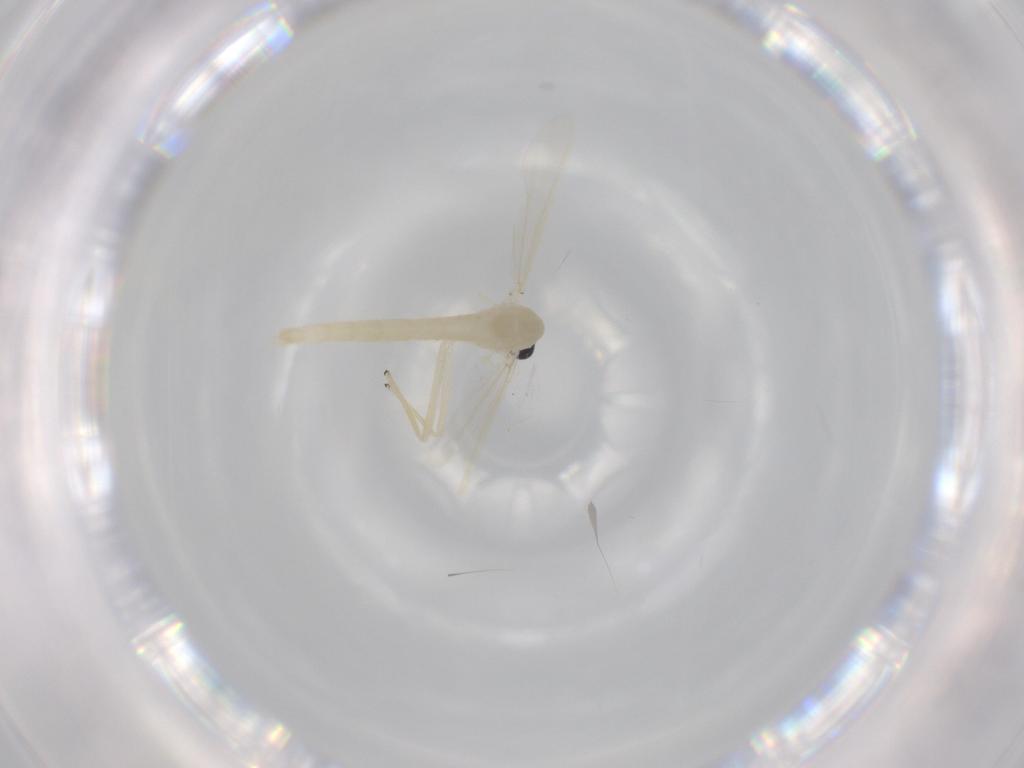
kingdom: Animalia
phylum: Arthropoda
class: Insecta
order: Diptera
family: Chironomidae
